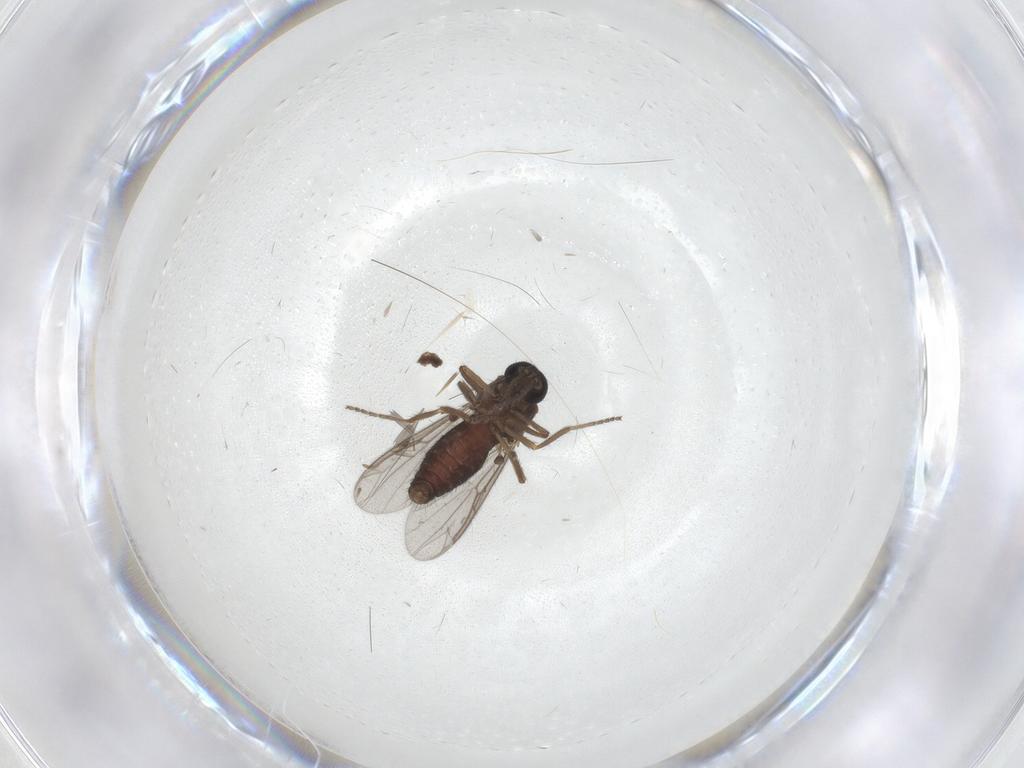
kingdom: Animalia
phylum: Arthropoda
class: Insecta
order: Diptera
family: Ceratopogonidae
